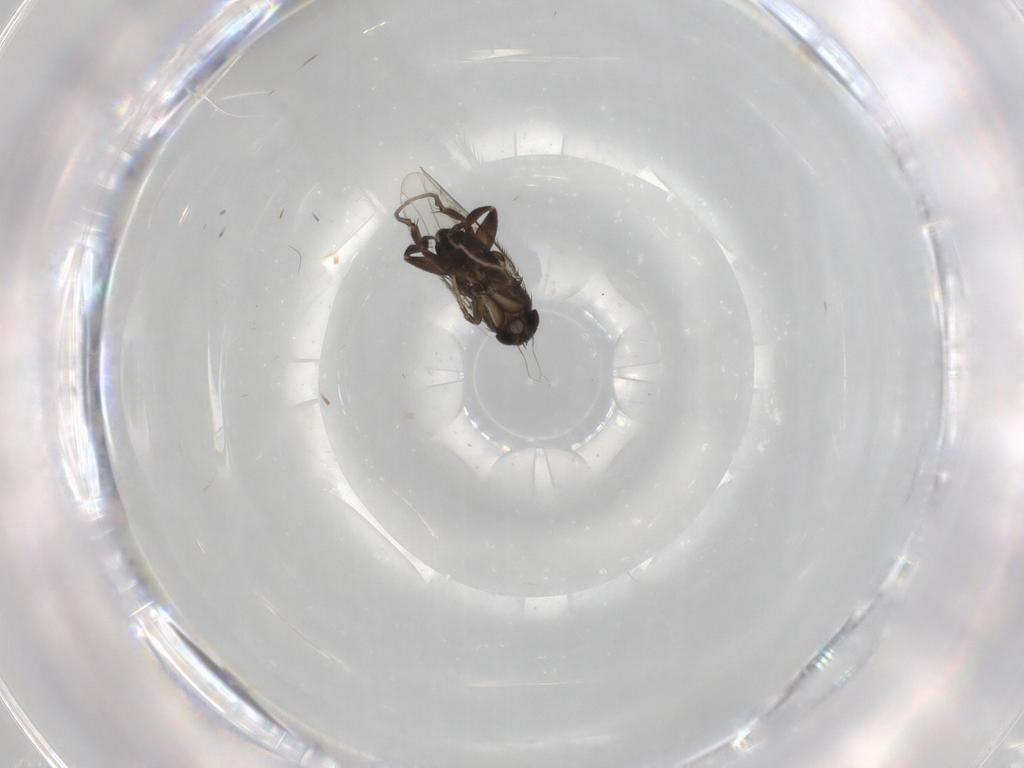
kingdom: Animalia
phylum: Arthropoda
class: Insecta
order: Diptera
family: Phoridae
